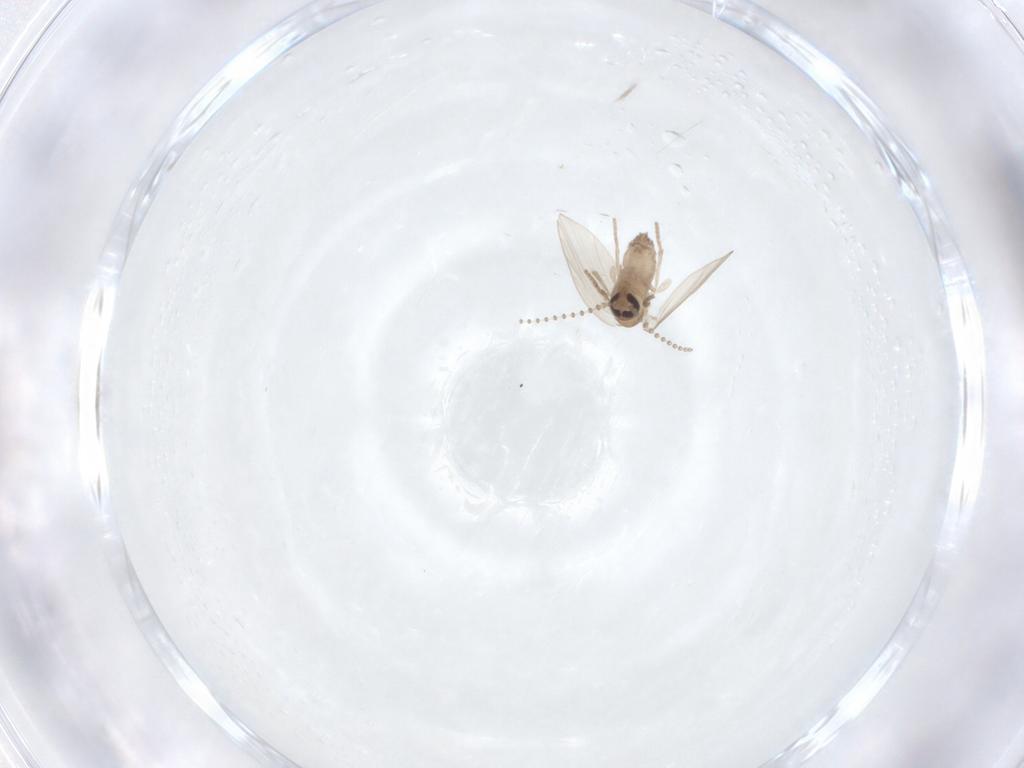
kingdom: Animalia
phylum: Arthropoda
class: Insecta
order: Diptera
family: Psychodidae
